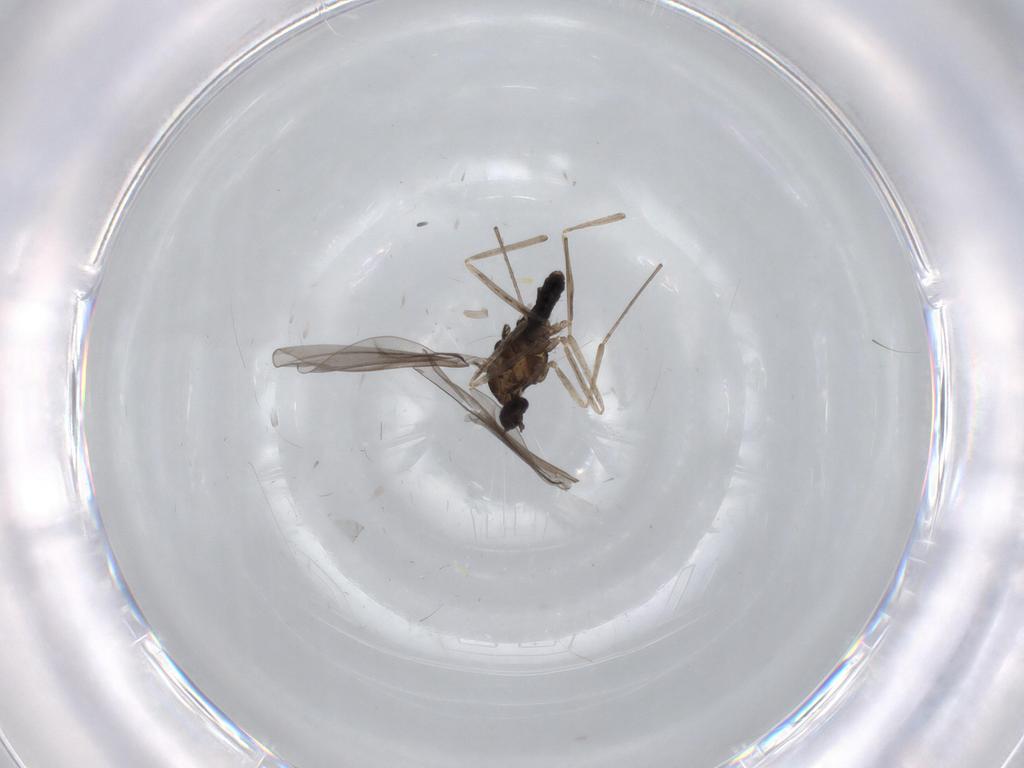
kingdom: Animalia
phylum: Arthropoda
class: Insecta
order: Diptera
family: Cecidomyiidae
